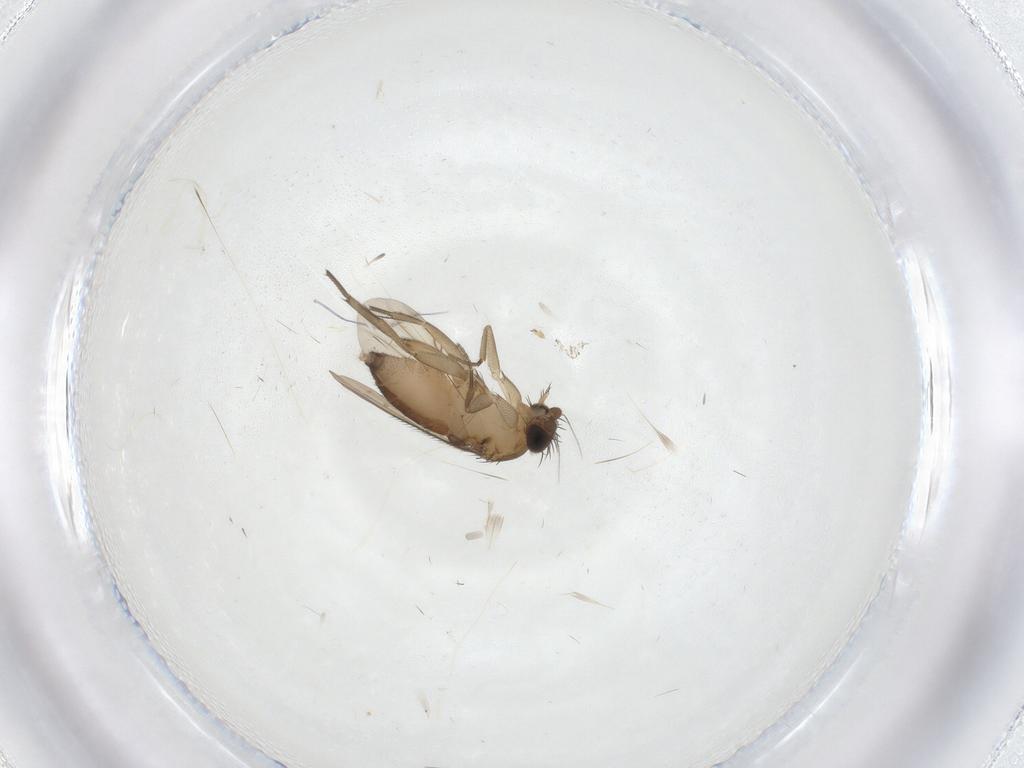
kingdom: Animalia
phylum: Arthropoda
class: Insecta
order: Diptera
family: Phoridae
